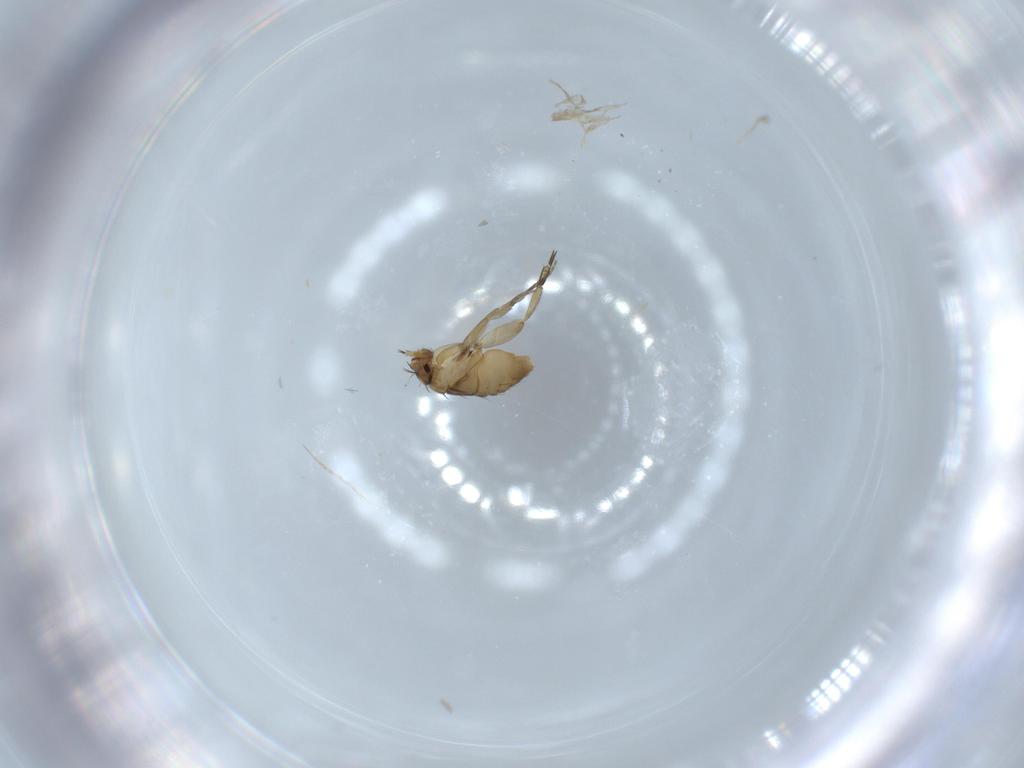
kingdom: Animalia
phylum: Arthropoda
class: Insecta
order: Diptera
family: Phoridae
